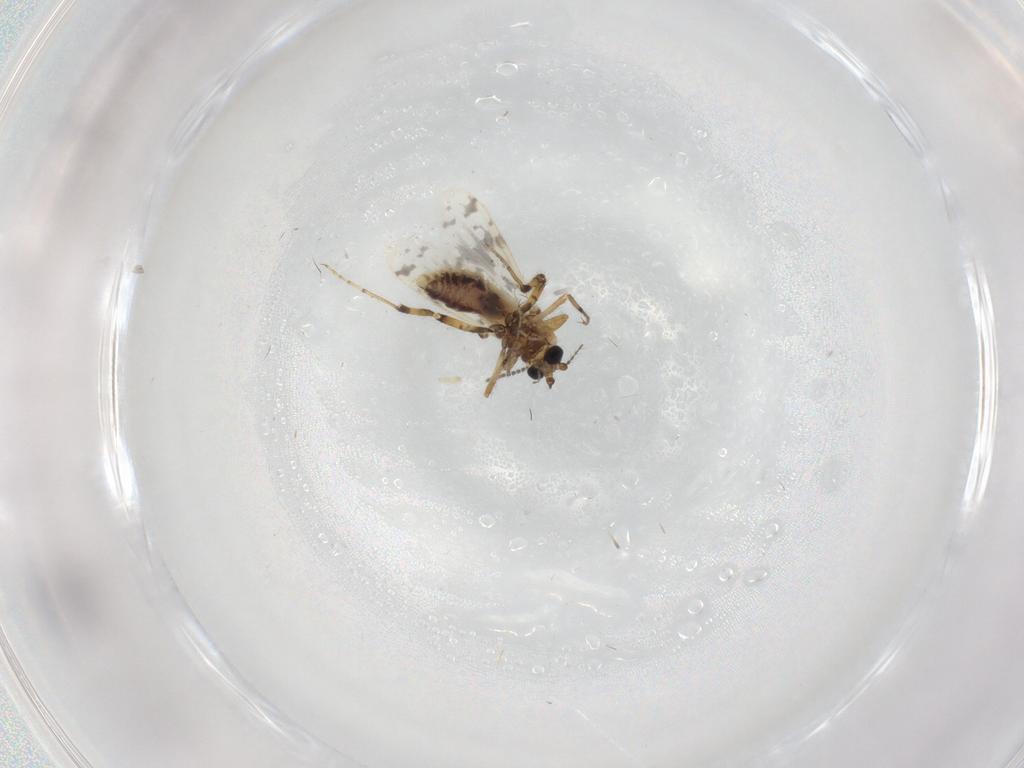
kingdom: Animalia
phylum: Arthropoda
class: Insecta
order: Diptera
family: Ceratopogonidae
